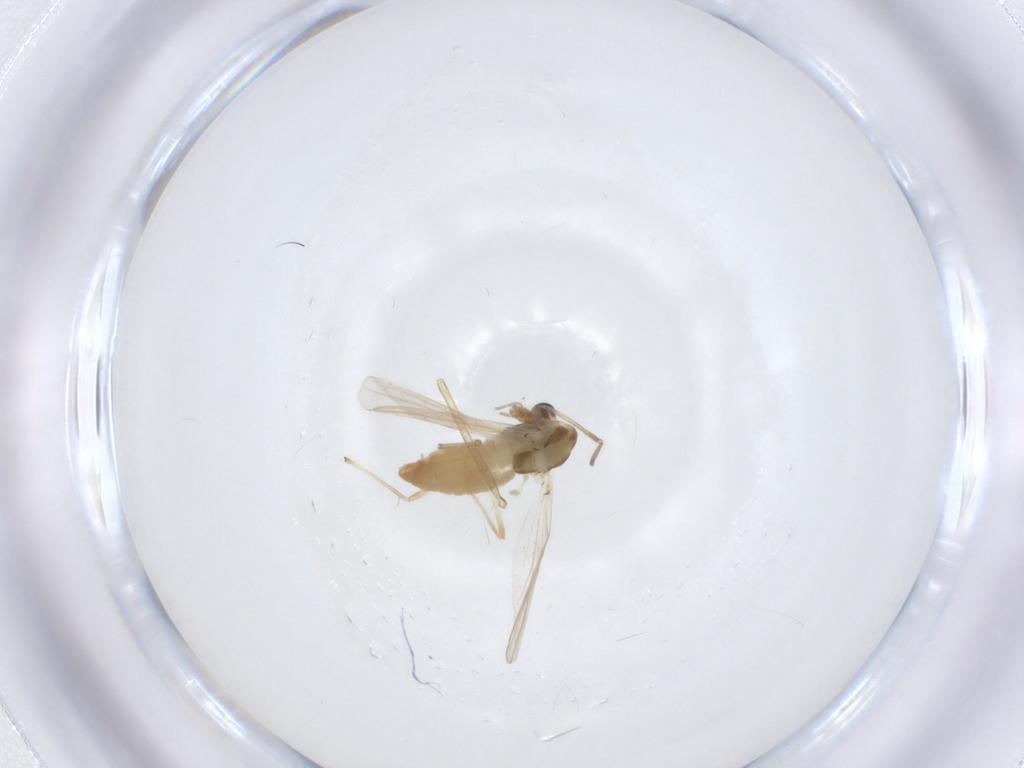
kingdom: Animalia
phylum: Arthropoda
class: Insecta
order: Diptera
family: Chironomidae
